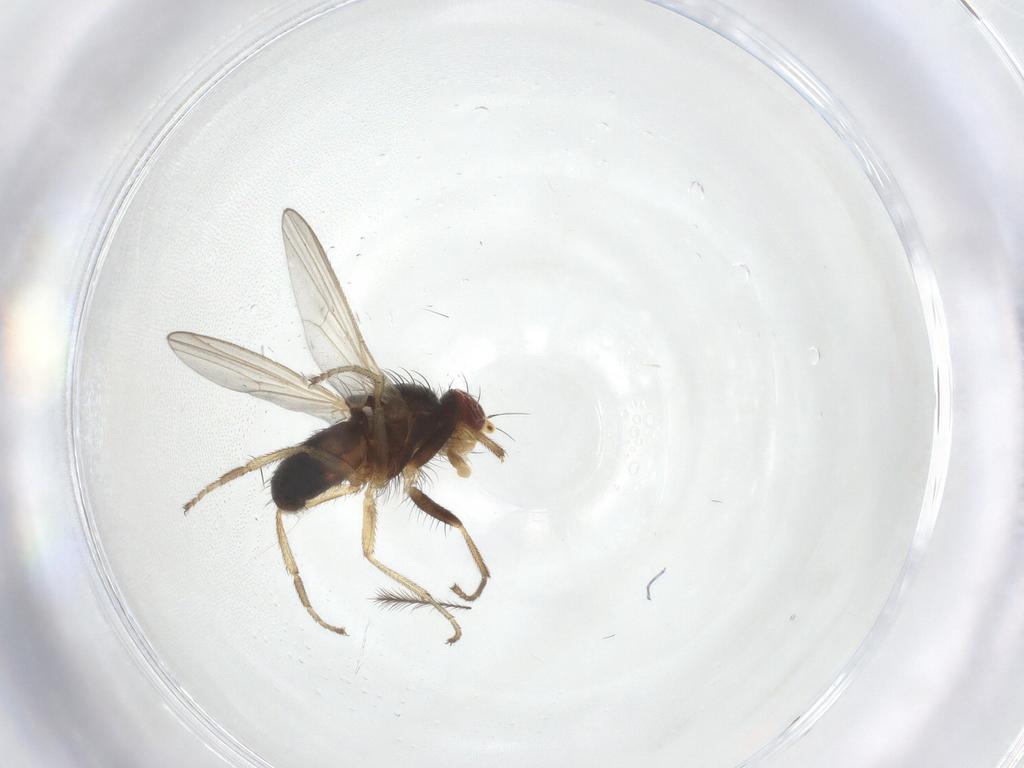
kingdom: Animalia
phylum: Arthropoda
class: Insecta
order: Diptera
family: Heleomyzidae
